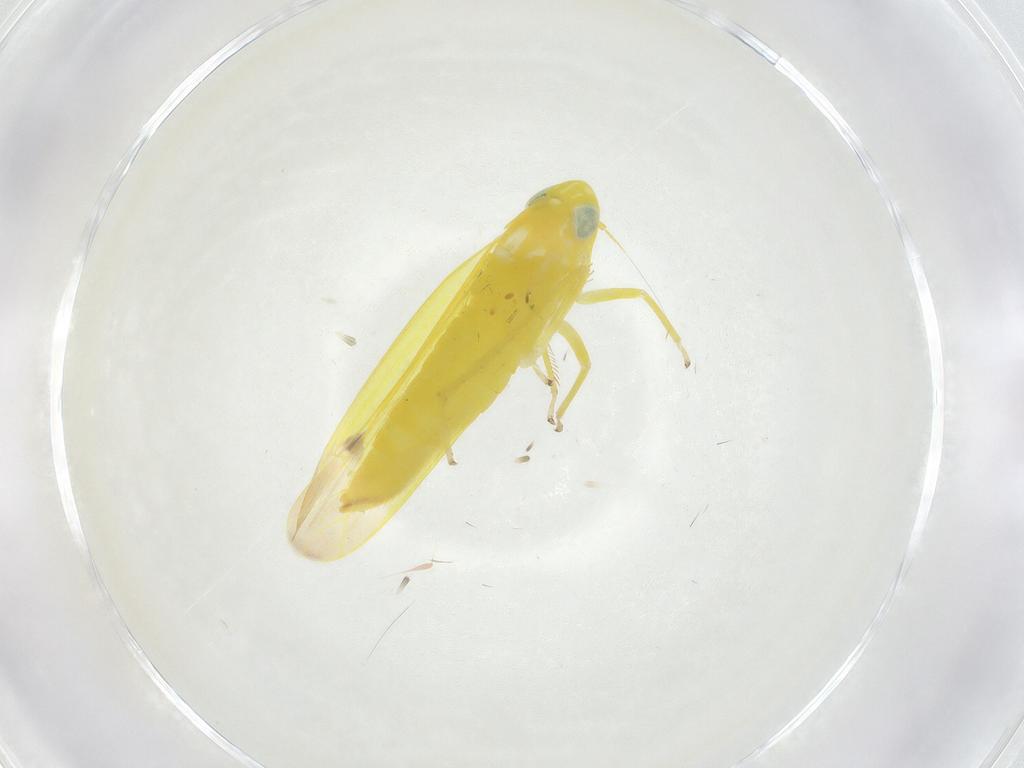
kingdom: Animalia
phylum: Arthropoda
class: Insecta
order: Hemiptera
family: Cicadellidae
